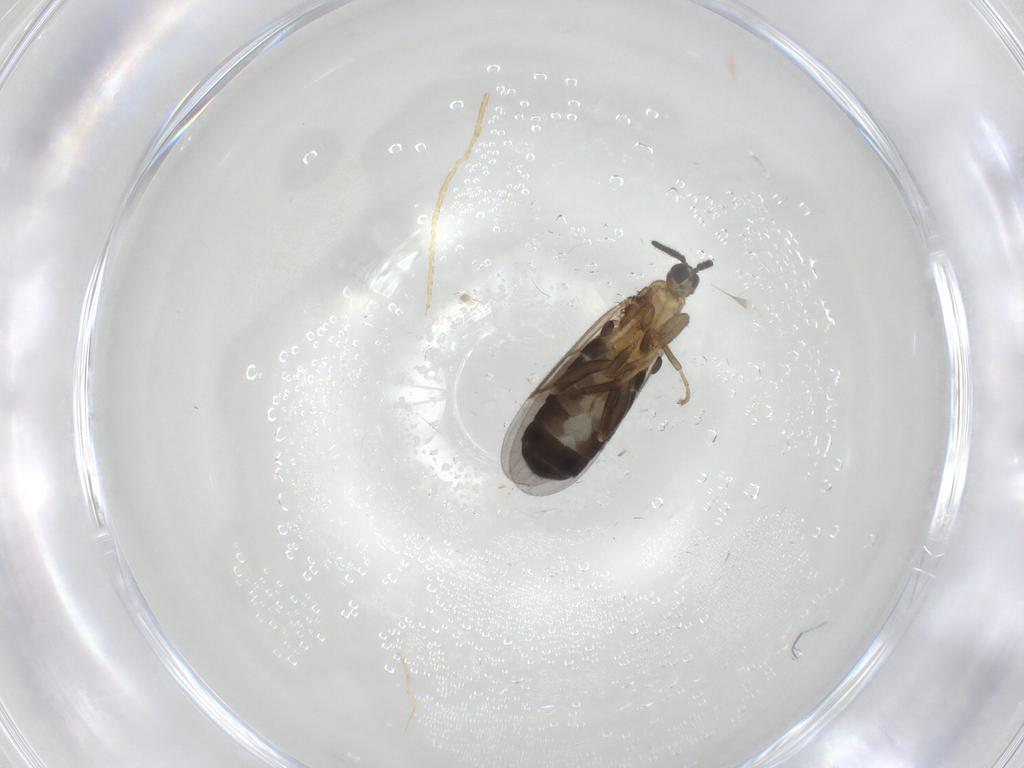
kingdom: Animalia
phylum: Arthropoda
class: Insecta
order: Diptera
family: Scatopsidae
